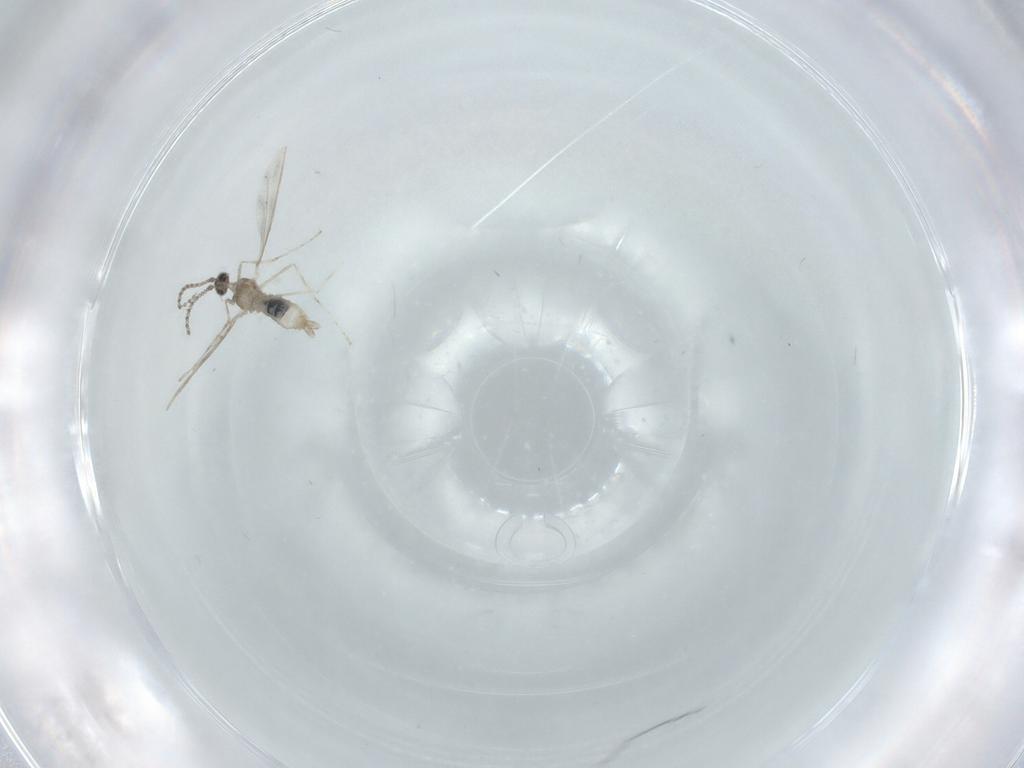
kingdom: Animalia
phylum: Arthropoda
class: Insecta
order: Diptera
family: Cecidomyiidae
